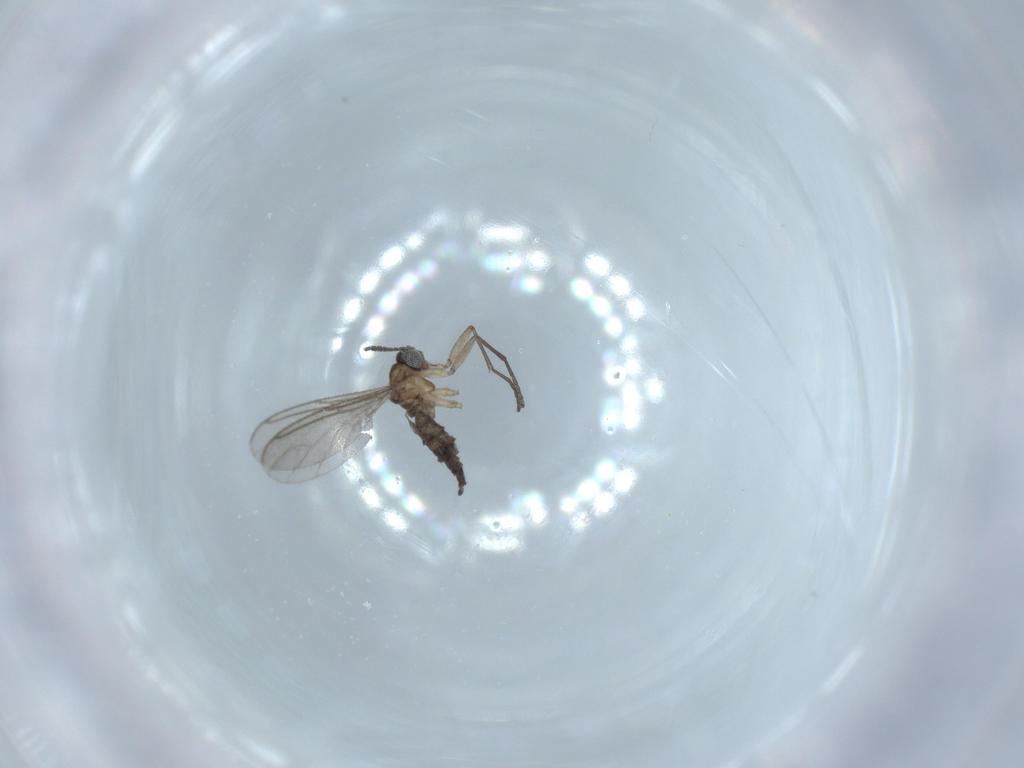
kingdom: Animalia
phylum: Arthropoda
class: Insecta
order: Diptera
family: Sciaridae
